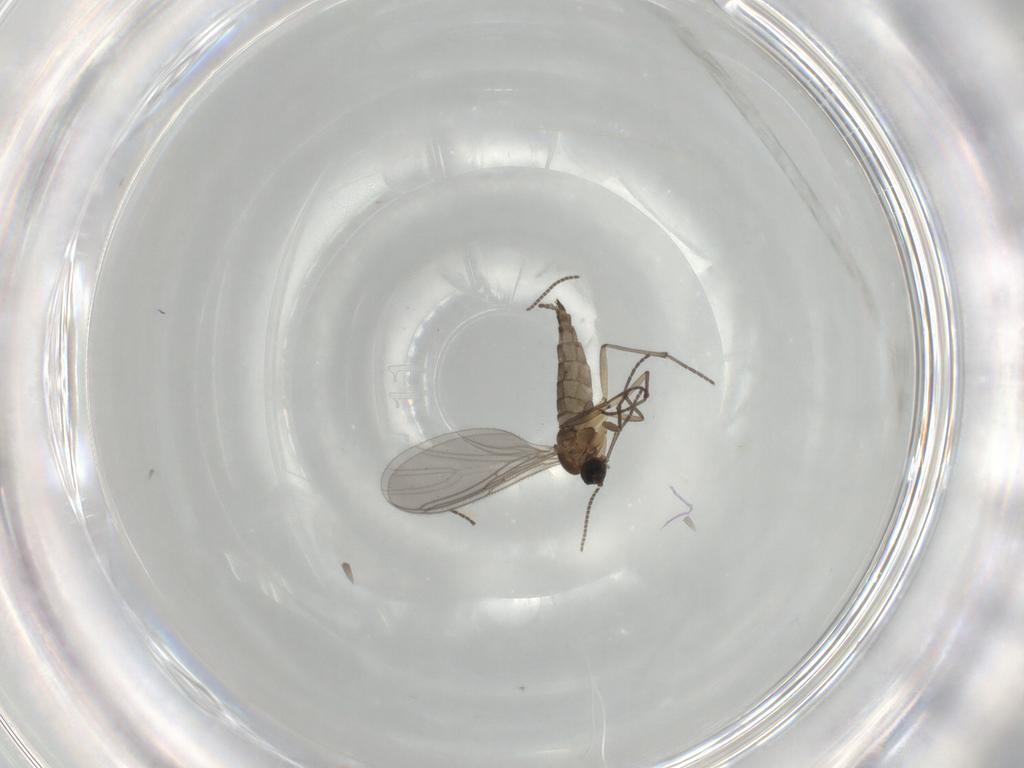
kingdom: Animalia
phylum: Arthropoda
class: Insecta
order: Diptera
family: Sciaridae
